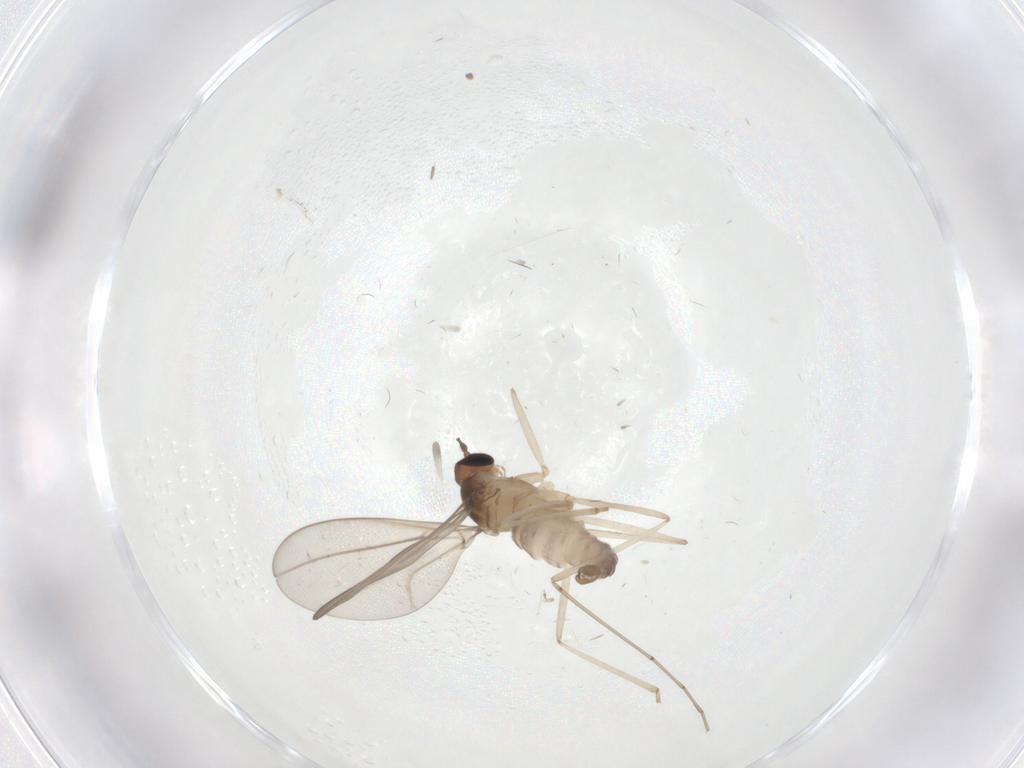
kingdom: Animalia
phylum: Arthropoda
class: Insecta
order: Diptera
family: Cecidomyiidae
